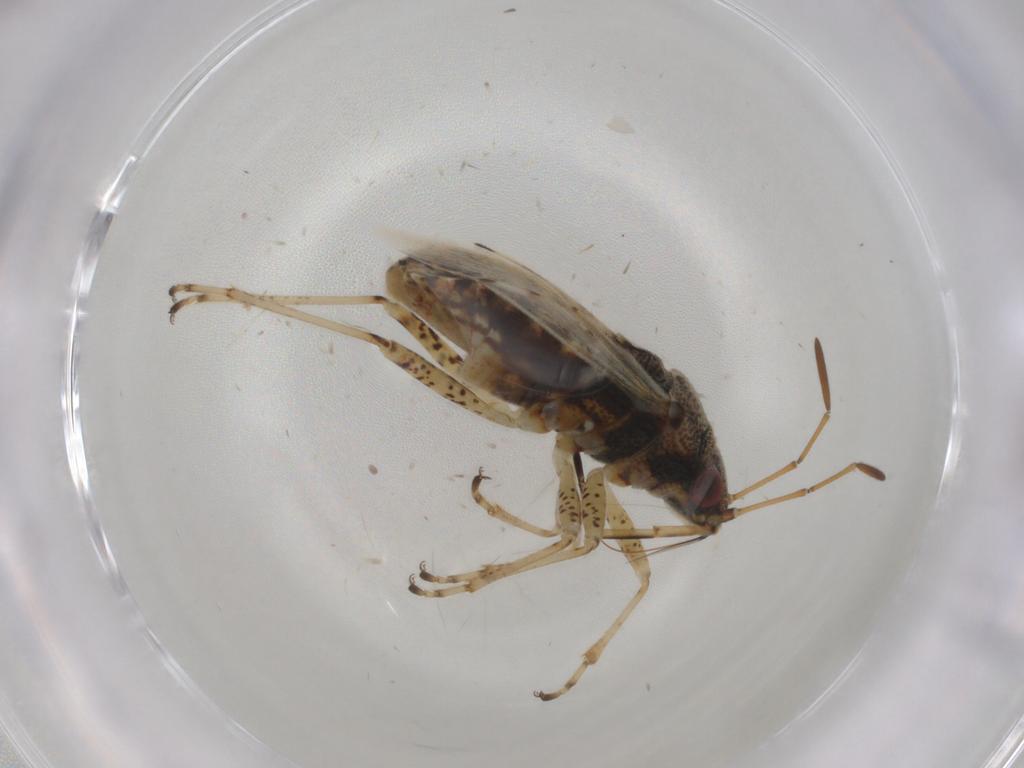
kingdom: Animalia
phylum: Arthropoda
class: Insecta
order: Hemiptera
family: Lygaeidae
